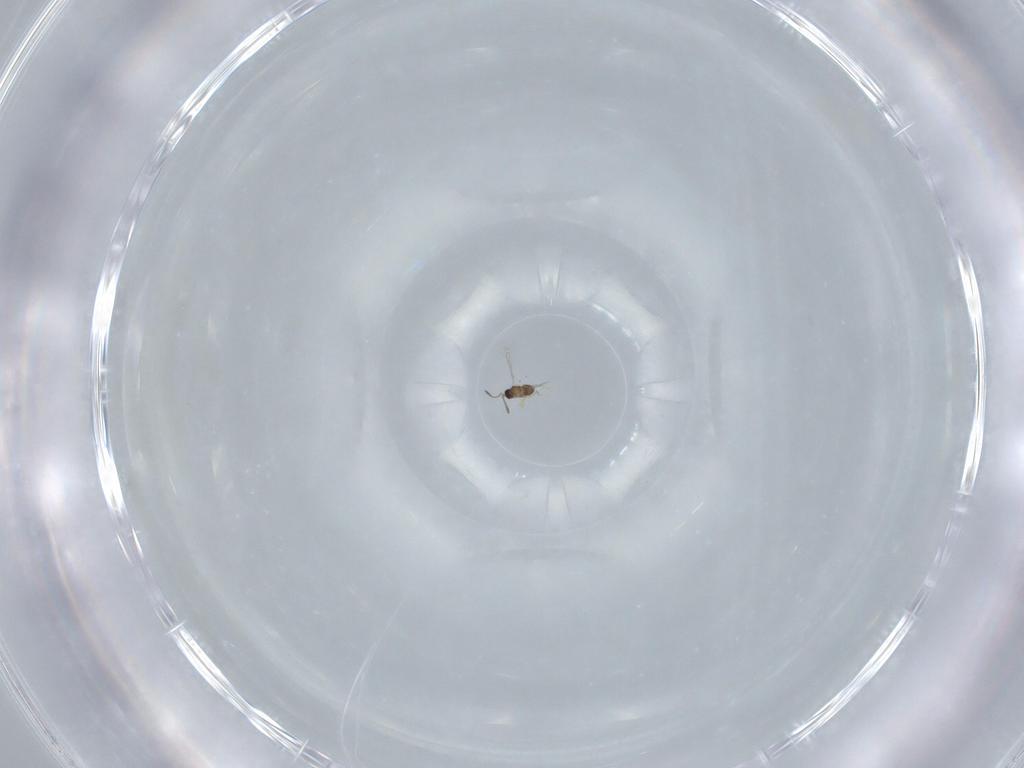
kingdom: Animalia
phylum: Arthropoda
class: Insecta
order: Hymenoptera
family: Mymaridae
